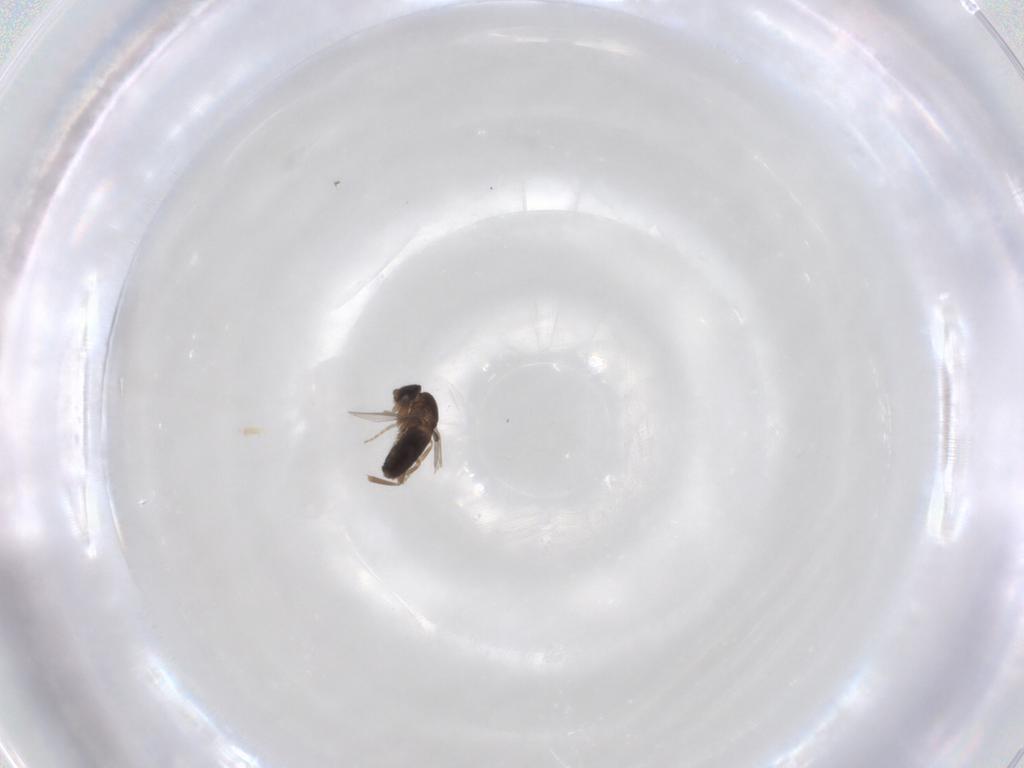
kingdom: Animalia
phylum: Arthropoda
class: Insecta
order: Diptera
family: Phoridae
